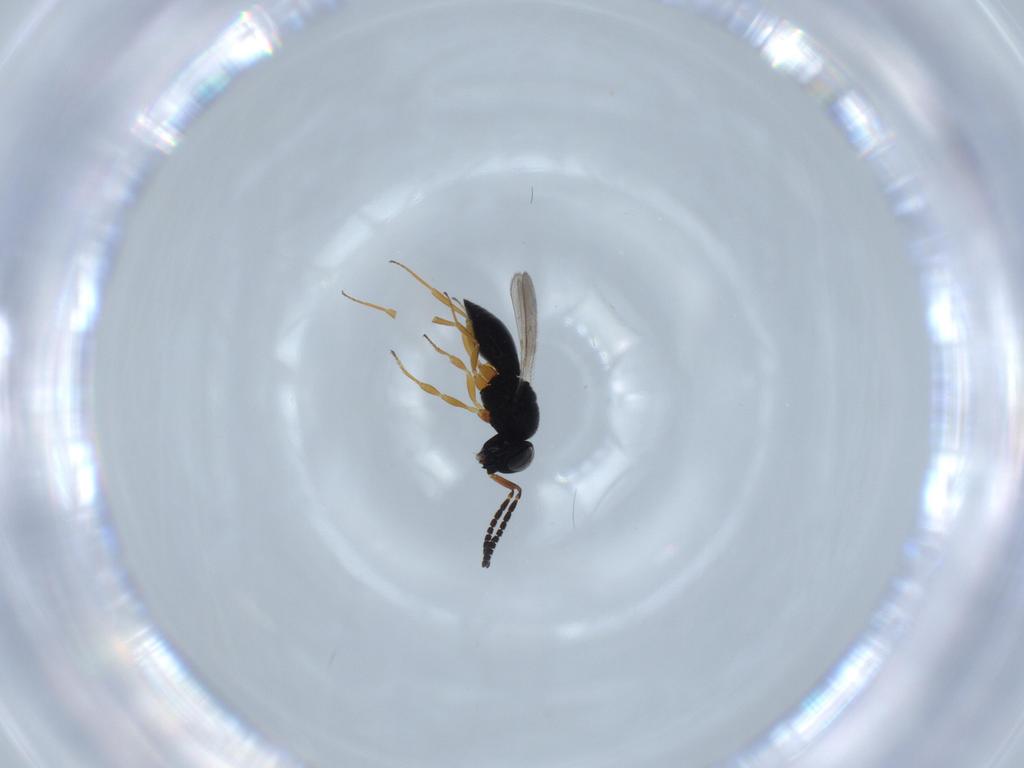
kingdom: Animalia
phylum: Arthropoda
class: Insecta
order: Hymenoptera
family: Scelionidae
